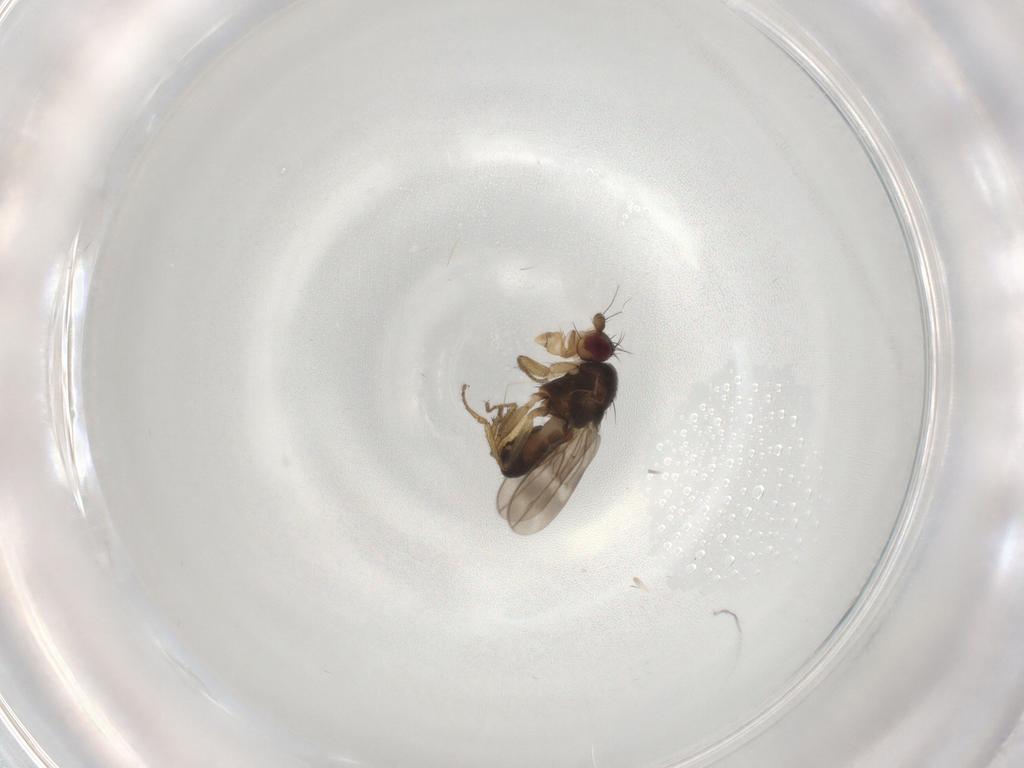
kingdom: Animalia
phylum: Arthropoda
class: Insecta
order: Diptera
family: Sphaeroceridae
